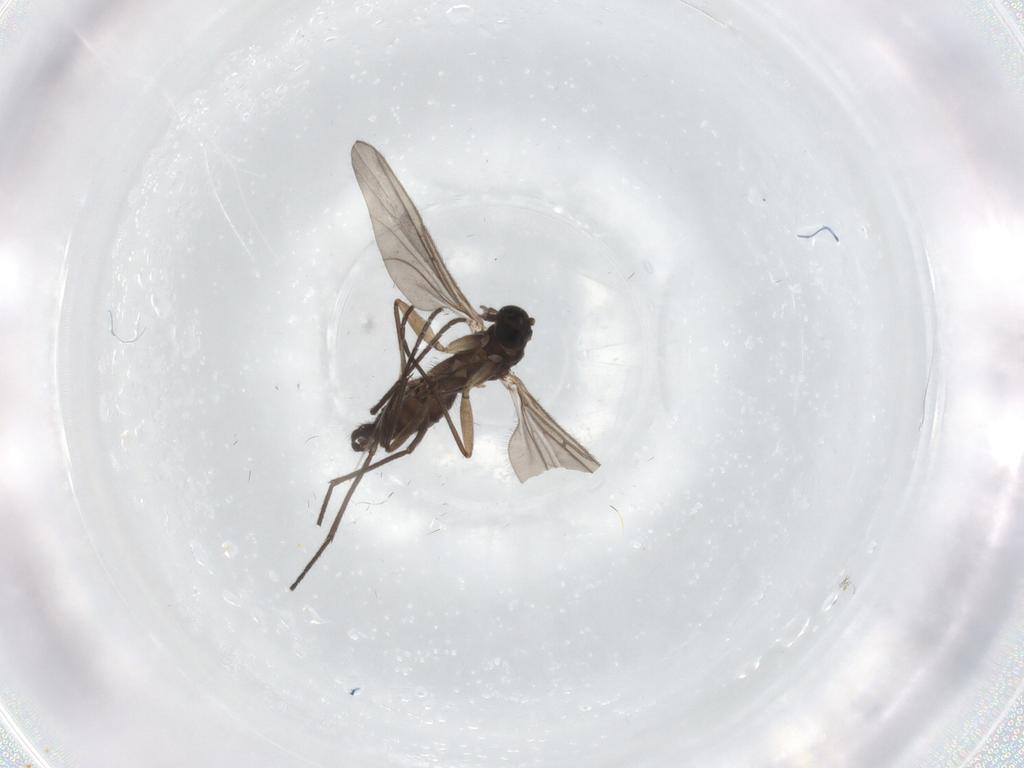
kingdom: Animalia
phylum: Arthropoda
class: Insecta
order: Diptera
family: Sciaridae
